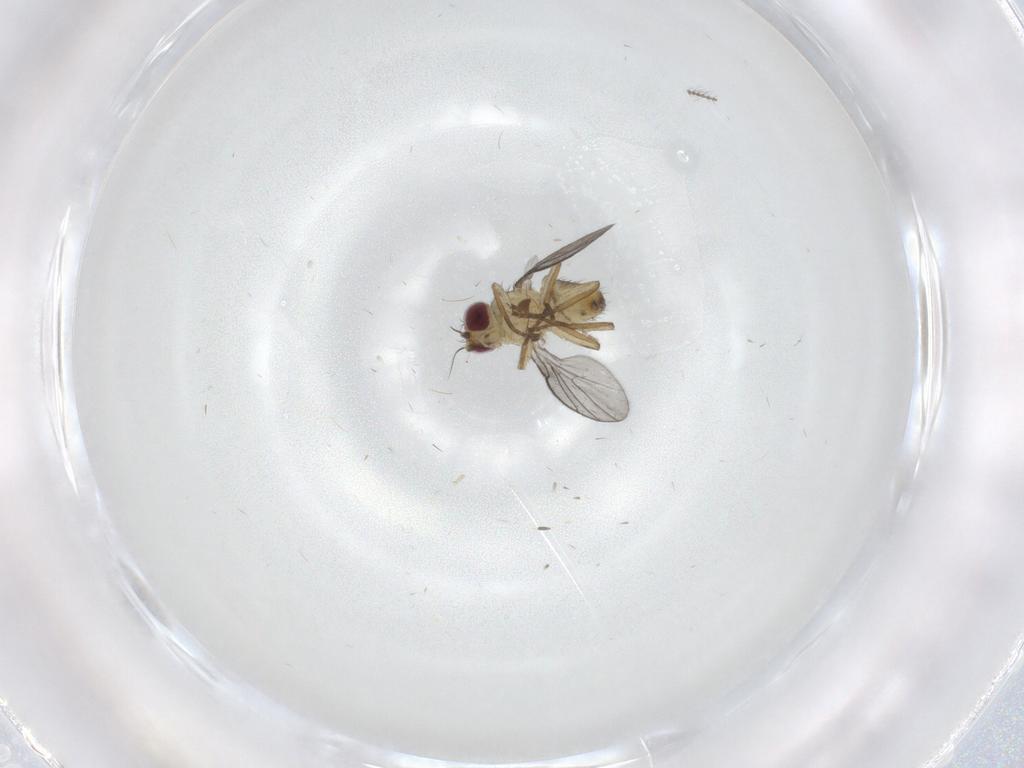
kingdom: Animalia
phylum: Arthropoda
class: Insecta
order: Diptera
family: Agromyzidae
